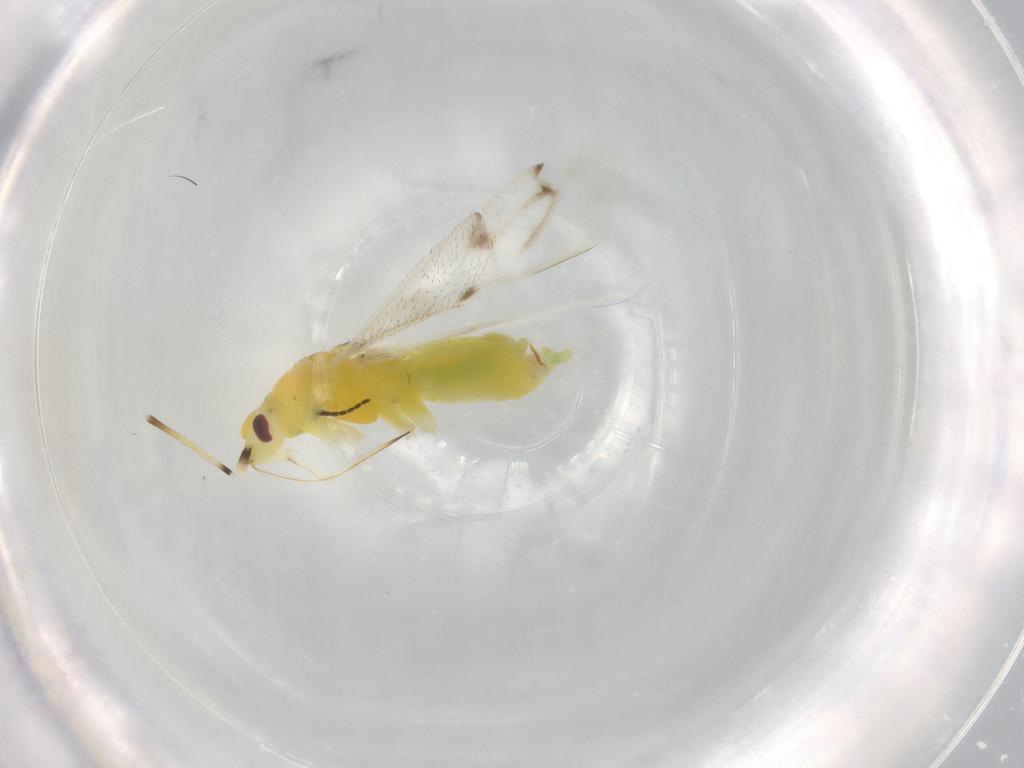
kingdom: Animalia
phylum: Arthropoda
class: Insecta
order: Hemiptera
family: Miridae
